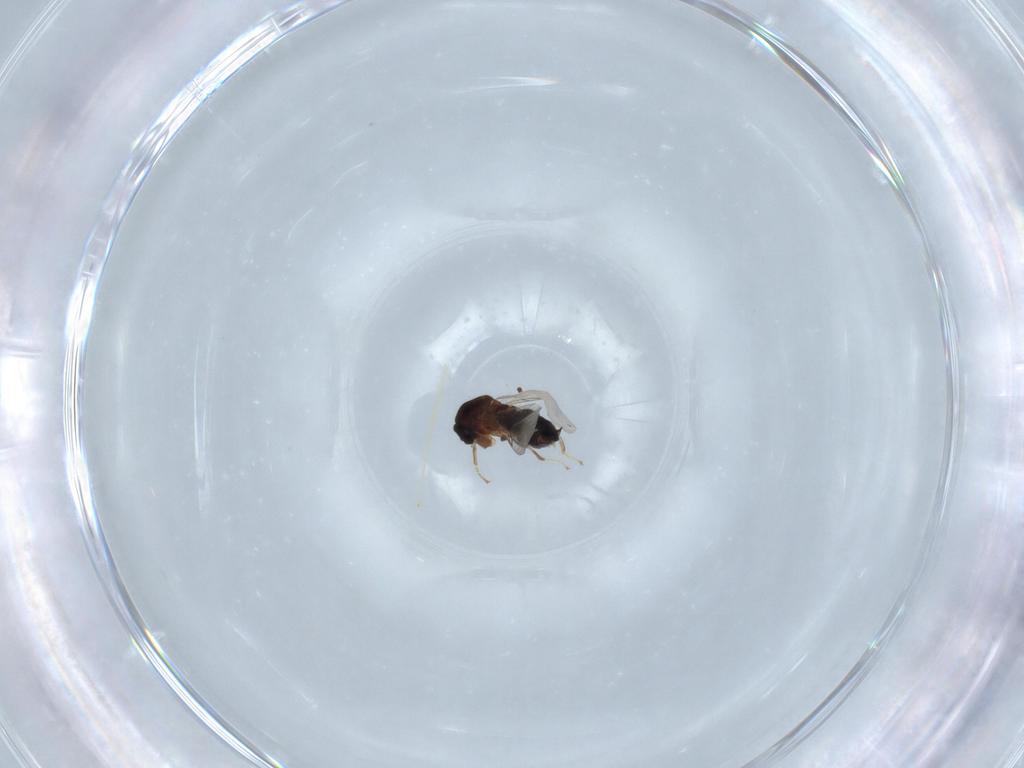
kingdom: Animalia
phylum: Arthropoda
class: Insecta
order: Diptera
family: Scatopsidae
